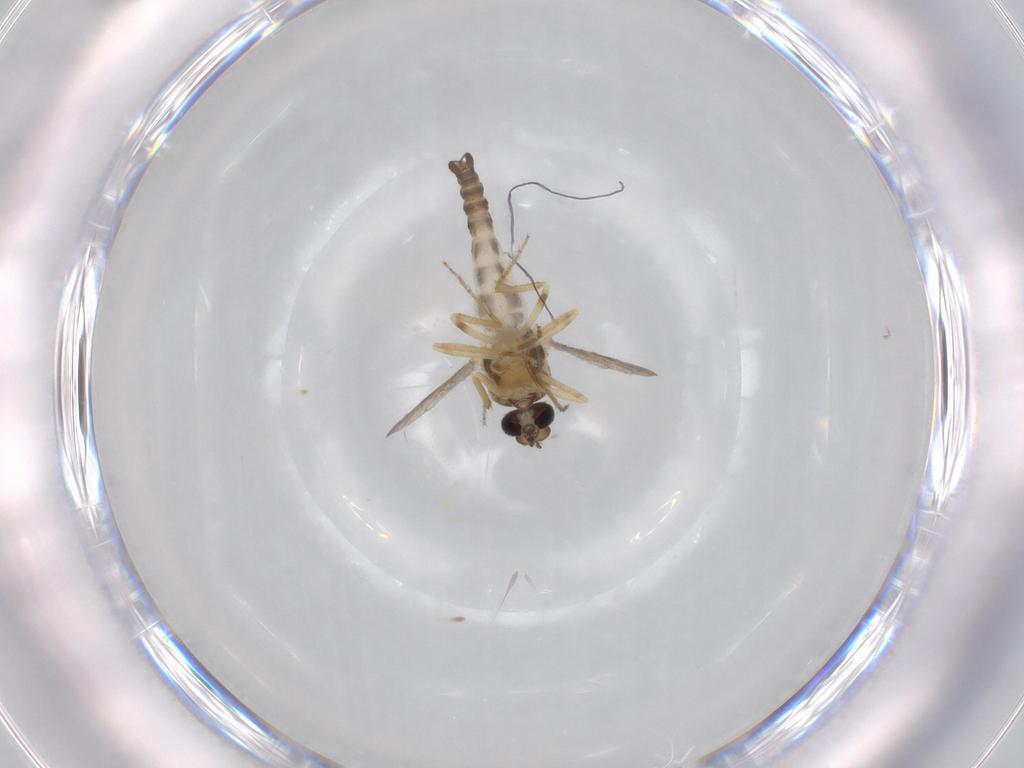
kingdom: Animalia
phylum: Arthropoda
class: Insecta
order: Diptera
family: Ceratopogonidae
